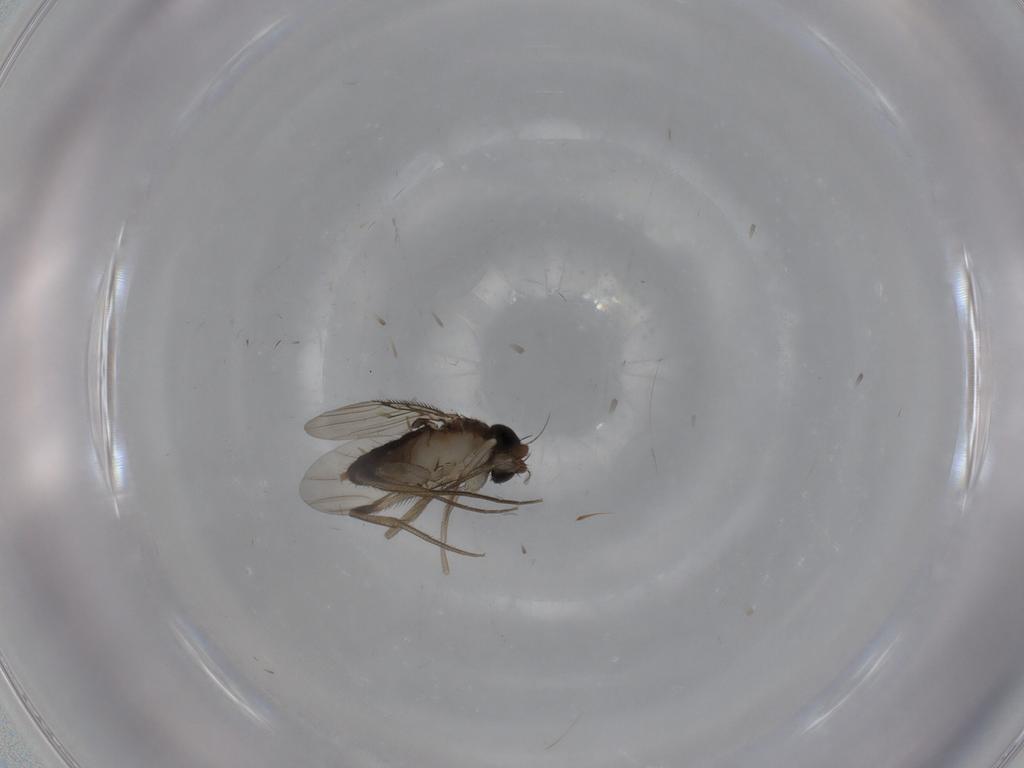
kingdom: Animalia
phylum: Arthropoda
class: Insecta
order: Diptera
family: Phoridae
